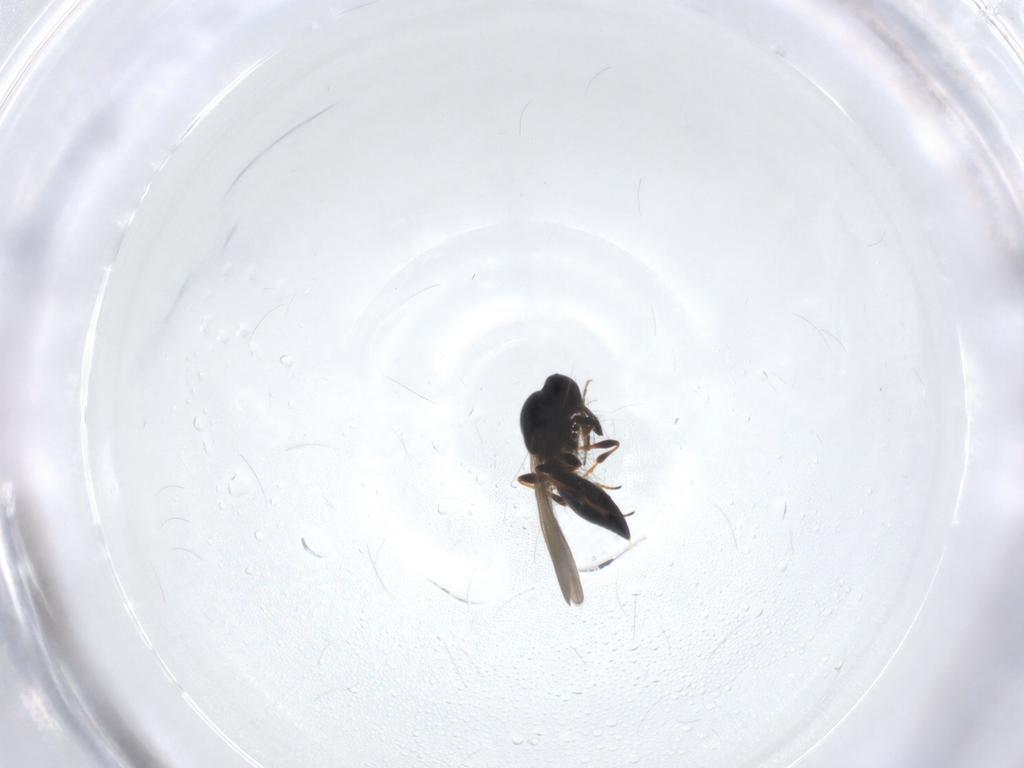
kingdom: Animalia
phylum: Arthropoda
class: Insecta
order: Hymenoptera
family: Platygastridae
